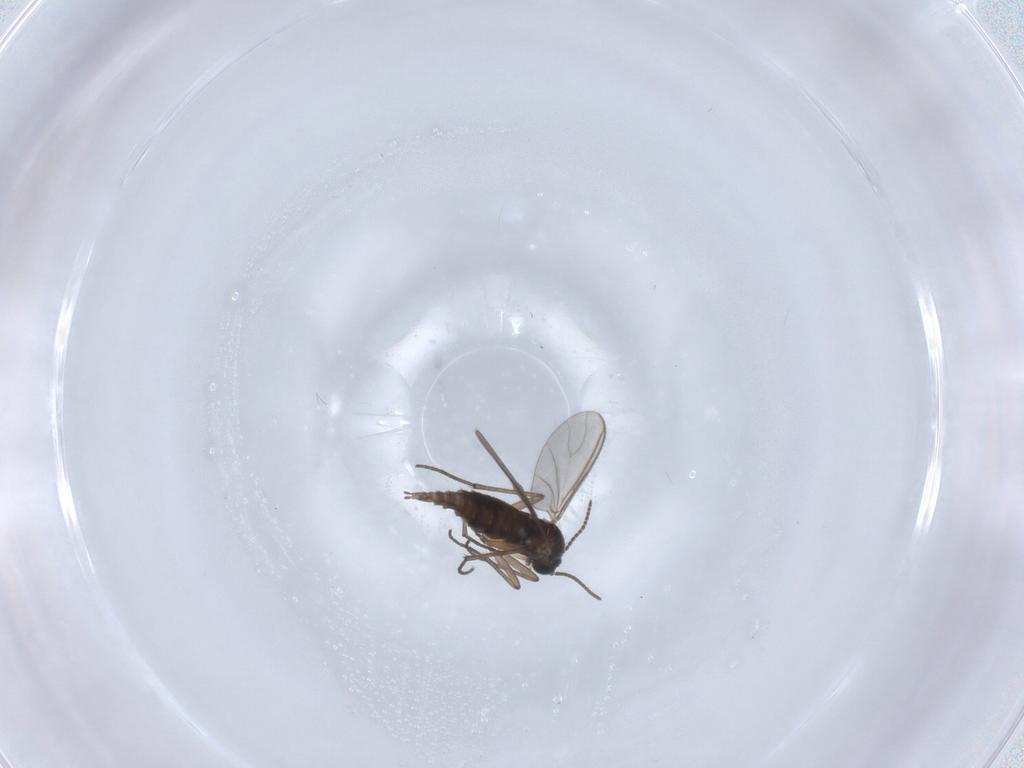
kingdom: Animalia
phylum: Arthropoda
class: Insecta
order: Diptera
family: Sciaridae
